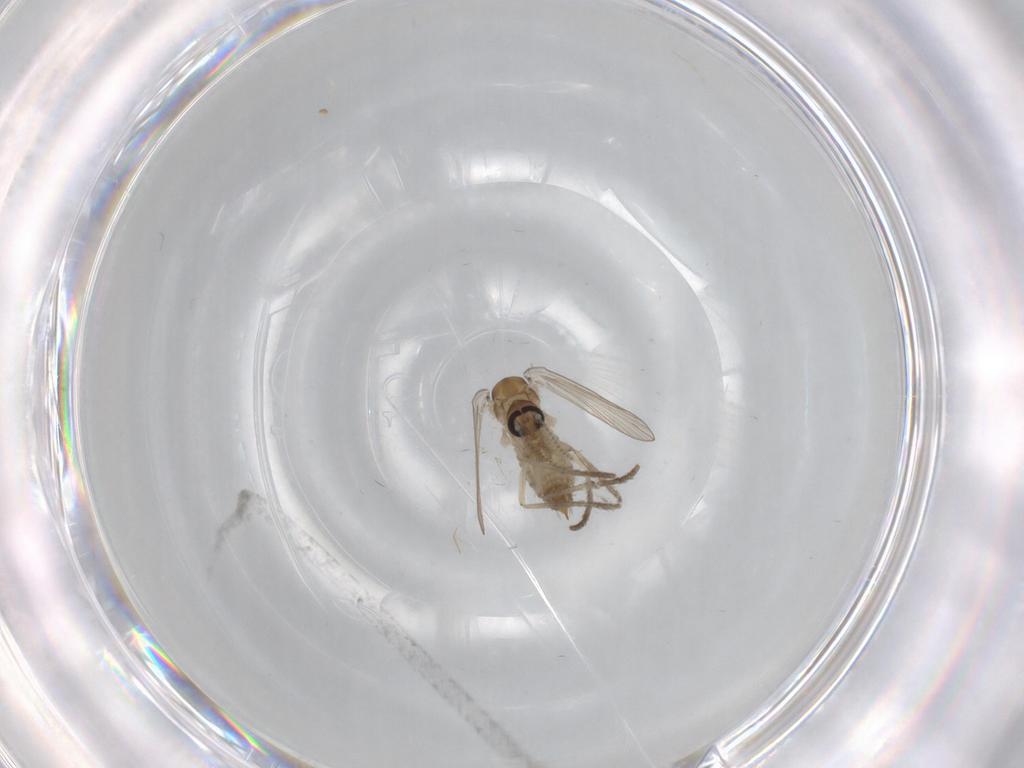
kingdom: Animalia
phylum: Arthropoda
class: Insecta
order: Diptera
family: Psychodidae
